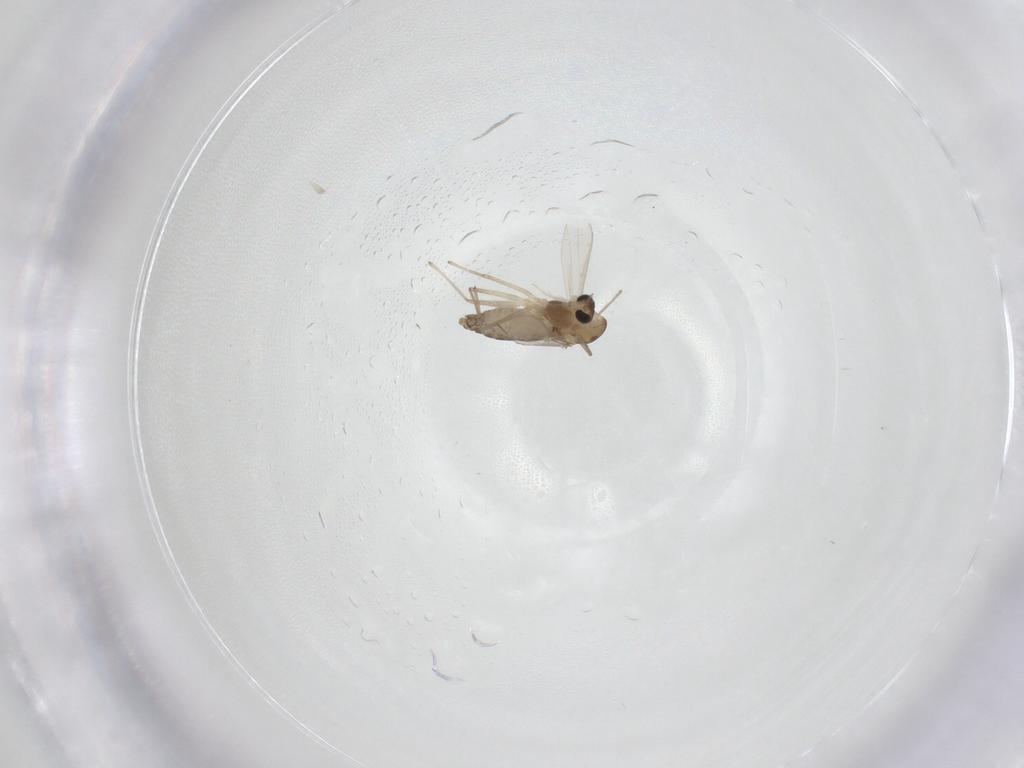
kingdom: Animalia
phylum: Arthropoda
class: Insecta
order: Diptera
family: Chironomidae
